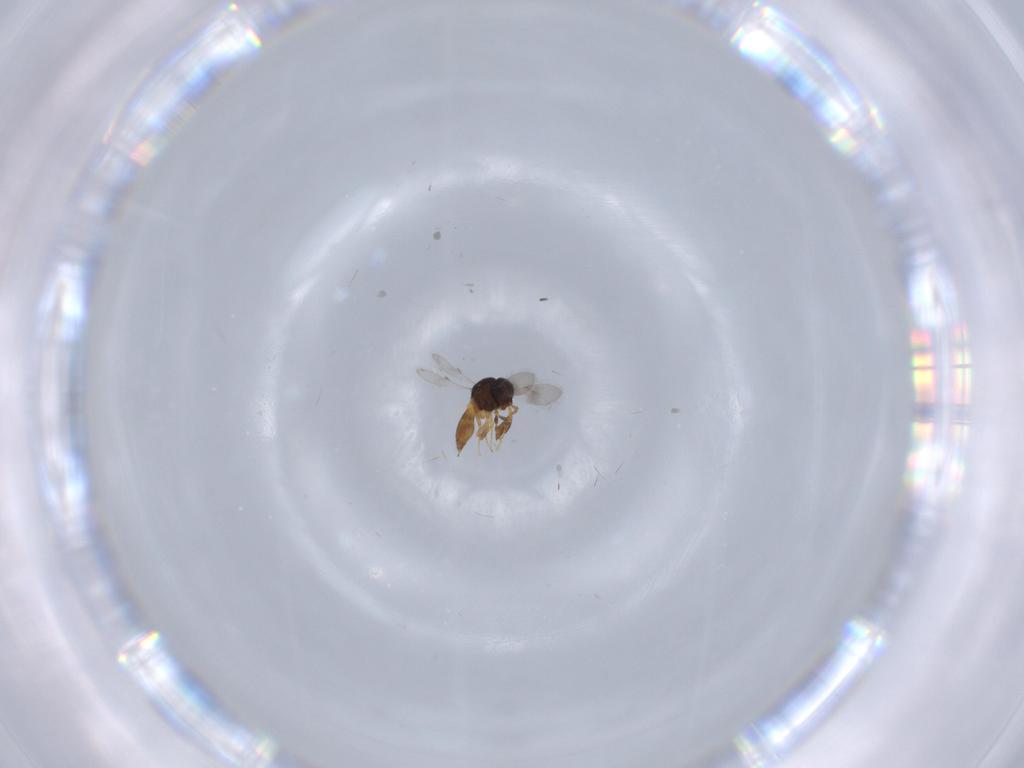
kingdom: Animalia
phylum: Arthropoda
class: Insecta
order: Hymenoptera
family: Scelionidae
